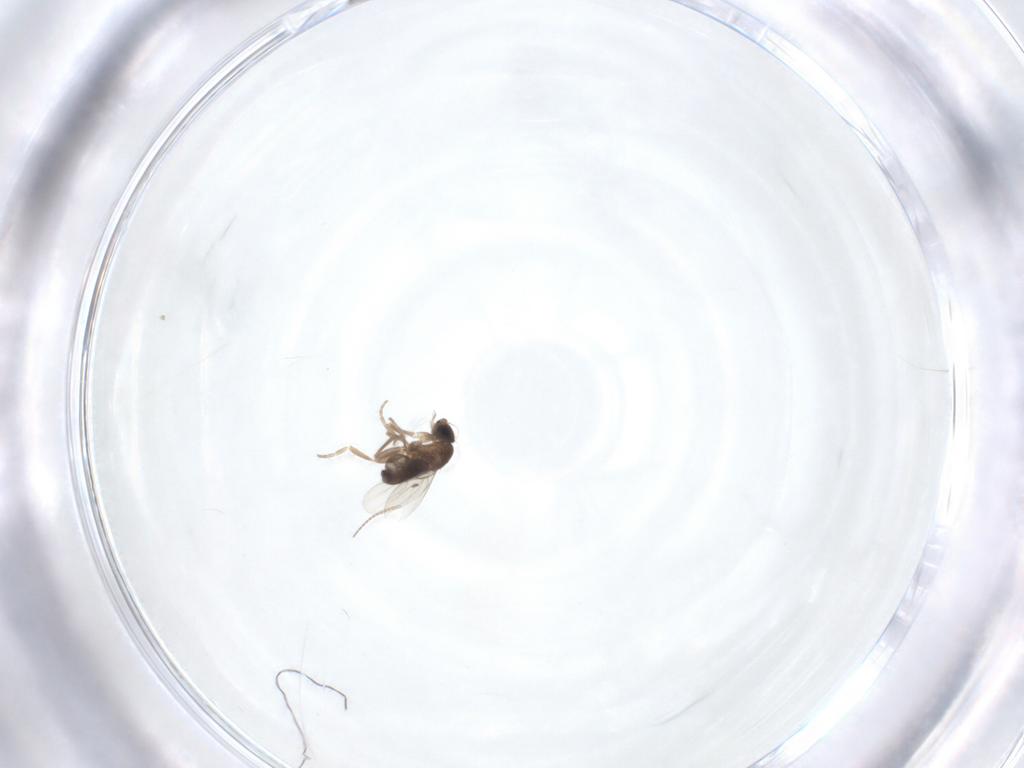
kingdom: Animalia
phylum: Arthropoda
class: Insecta
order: Diptera
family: Phoridae
